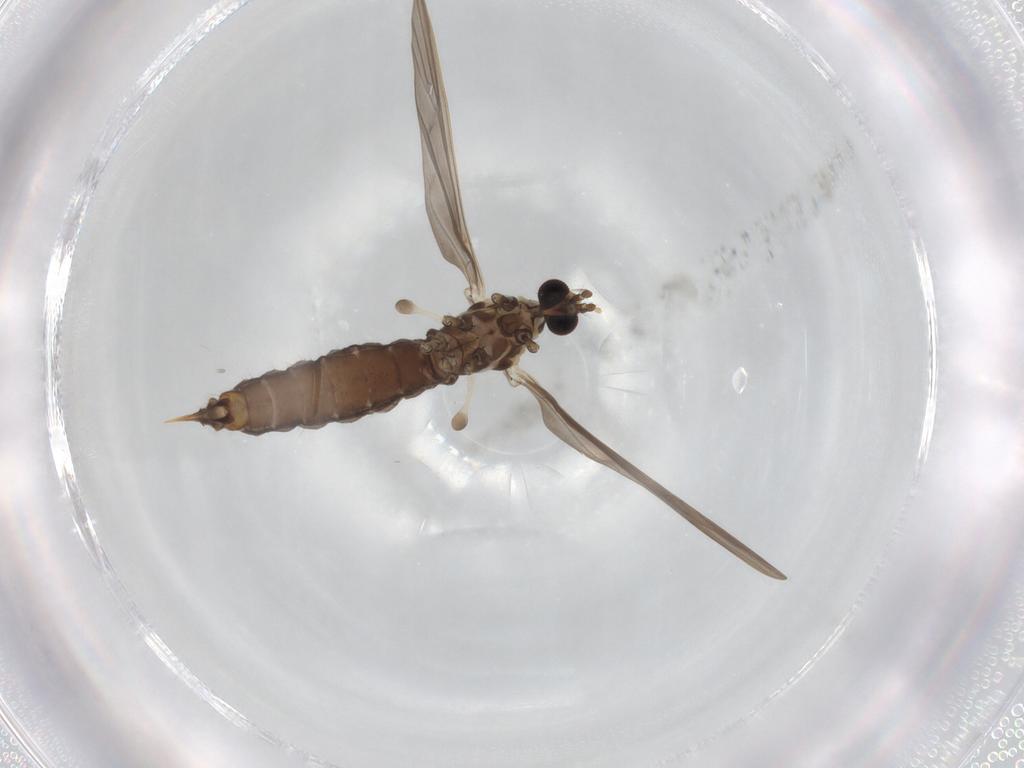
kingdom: Animalia
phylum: Arthropoda
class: Insecta
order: Diptera
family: Limoniidae
